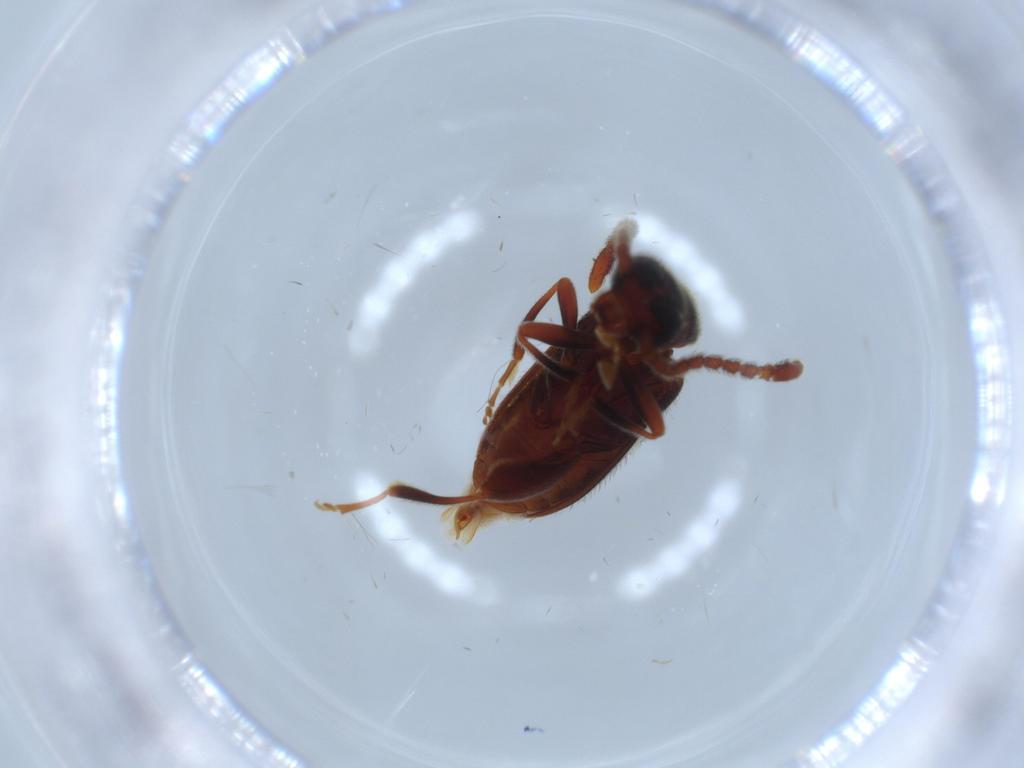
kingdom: Animalia
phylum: Arthropoda
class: Insecta
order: Coleoptera
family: Aderidae
